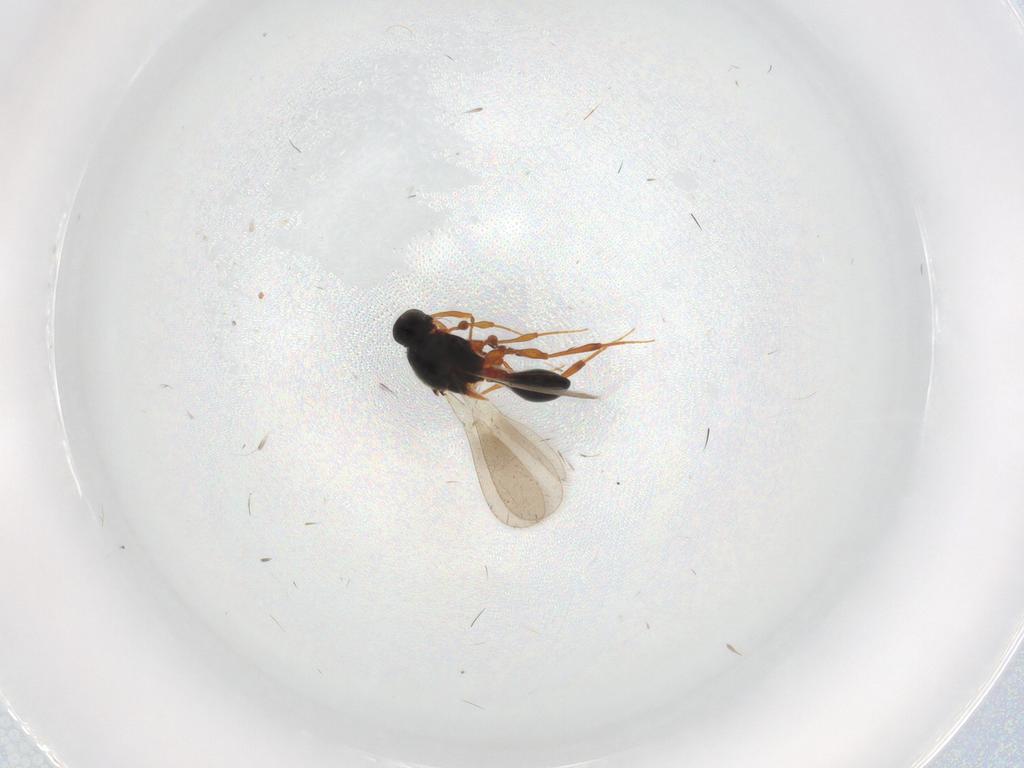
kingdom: Animalia
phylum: Arthropoda
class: Insecta
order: Hymenoptera
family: Platygastridae
